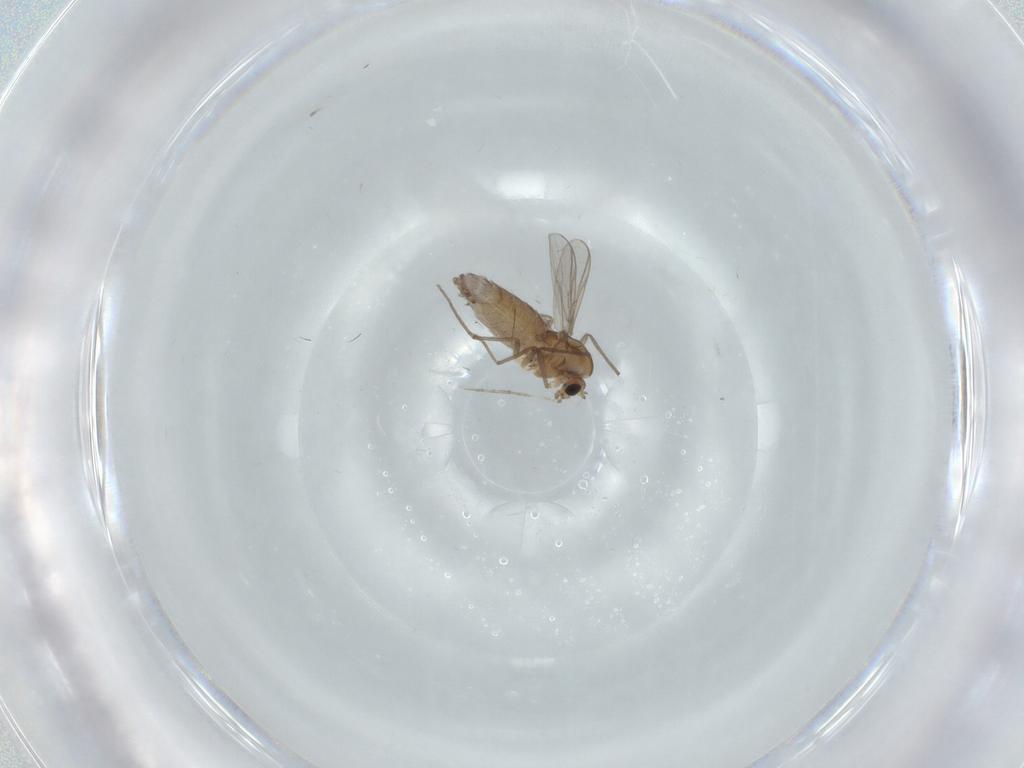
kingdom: Animalia
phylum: Arthropoda
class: Insecta
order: Diptera
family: Chironomidae
